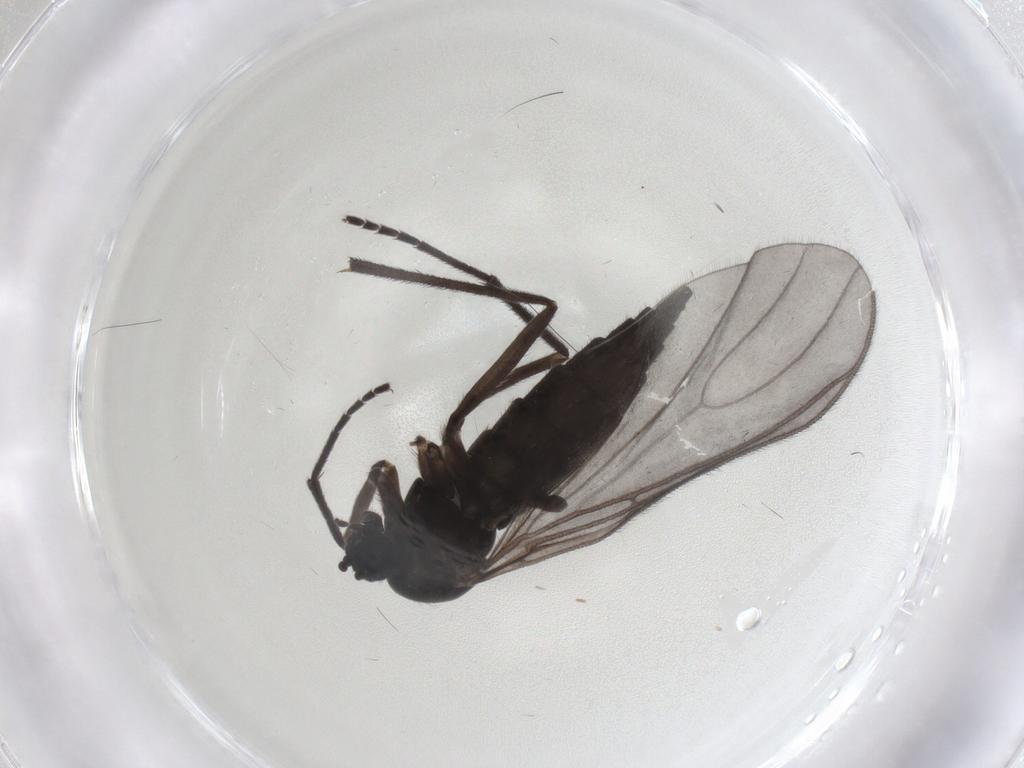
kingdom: Animalia
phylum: Arthropoda
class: Insecta
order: Diptera
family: Sciaridae
